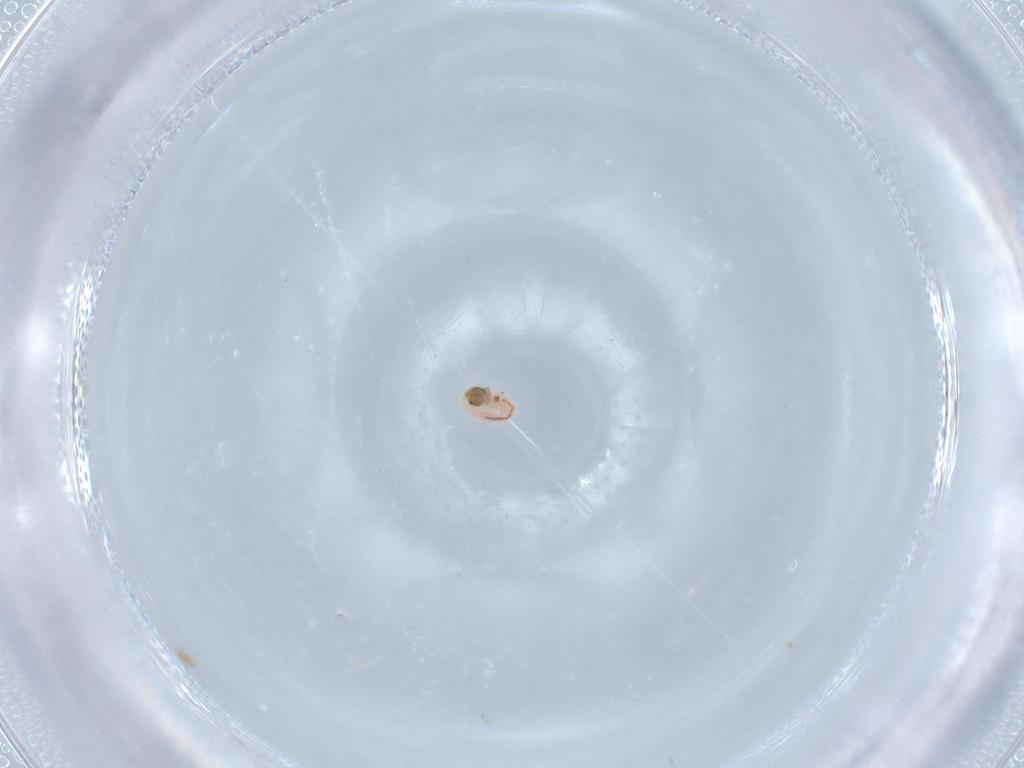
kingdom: Animalia
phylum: Arthropoda
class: Insecta
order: Lepidoptera
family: Gelechiidae
